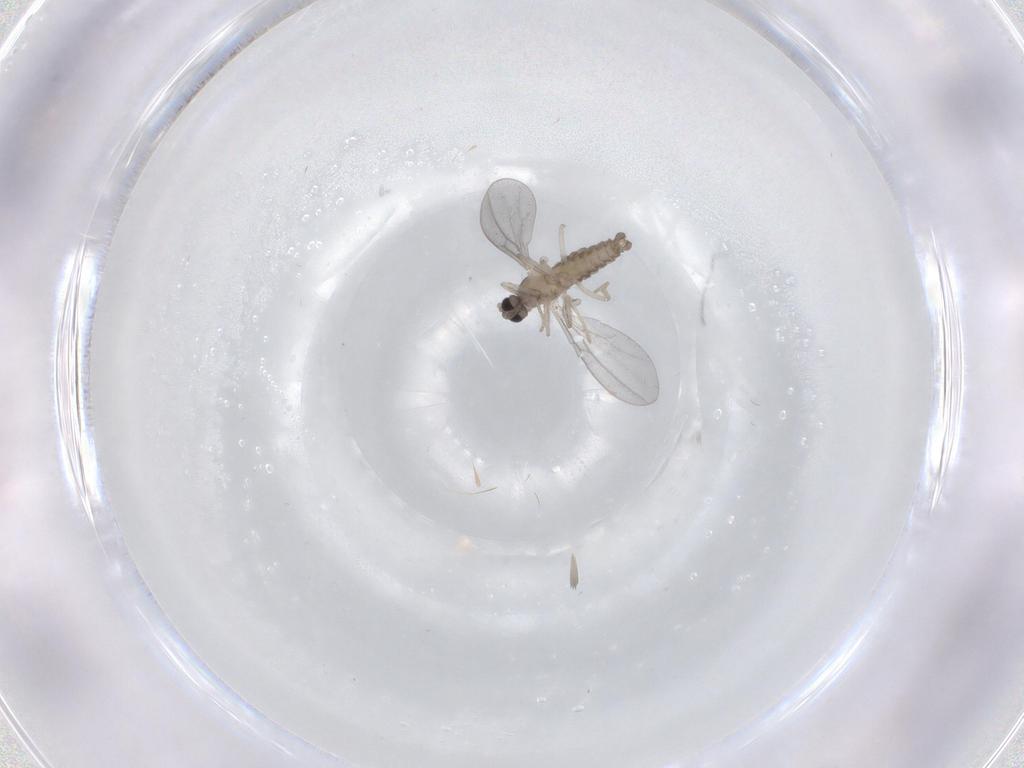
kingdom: Animalia
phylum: Arthropoda
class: Insecta
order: Diptera
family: Cecidomyiidae
